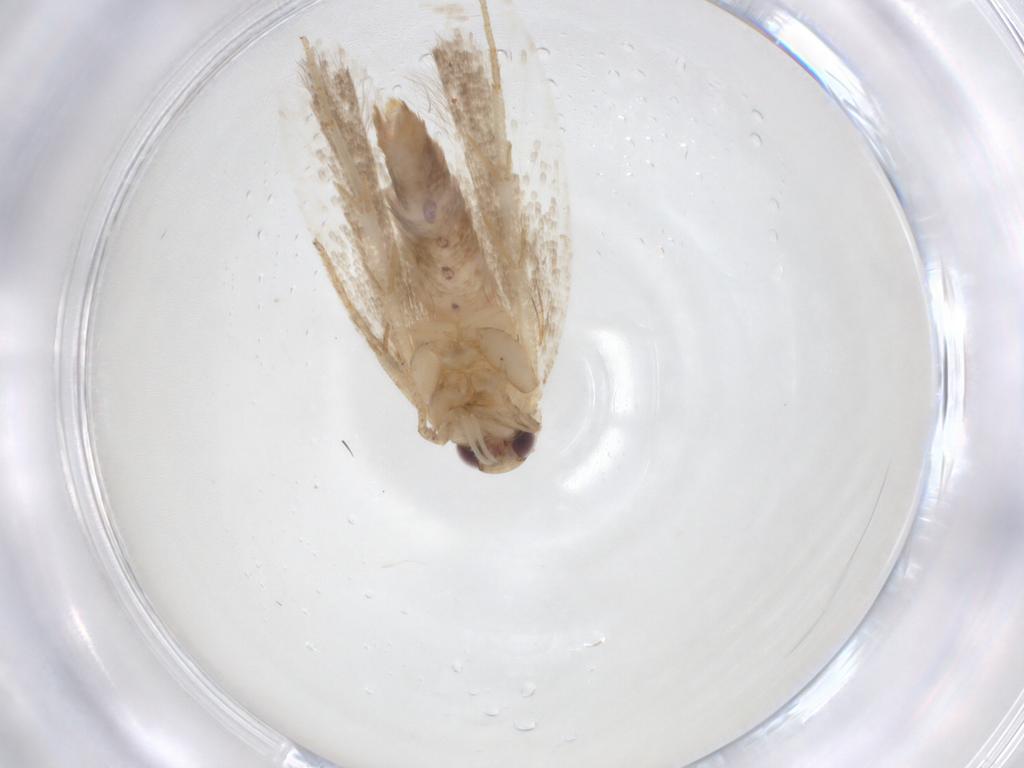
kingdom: Animalia
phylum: Arthropoda
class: Insecta
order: Lepidoptera
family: Gelechiidae
